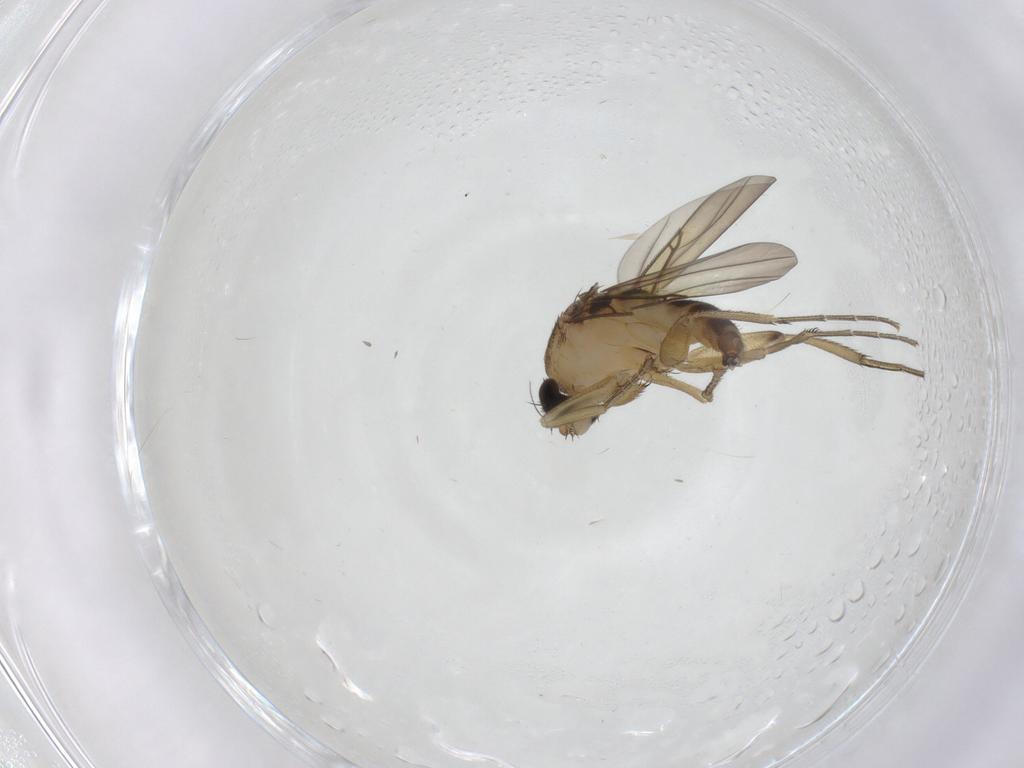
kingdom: Animalia
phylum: Arthropoda
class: Insecta
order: Diptera
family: Phoridae
